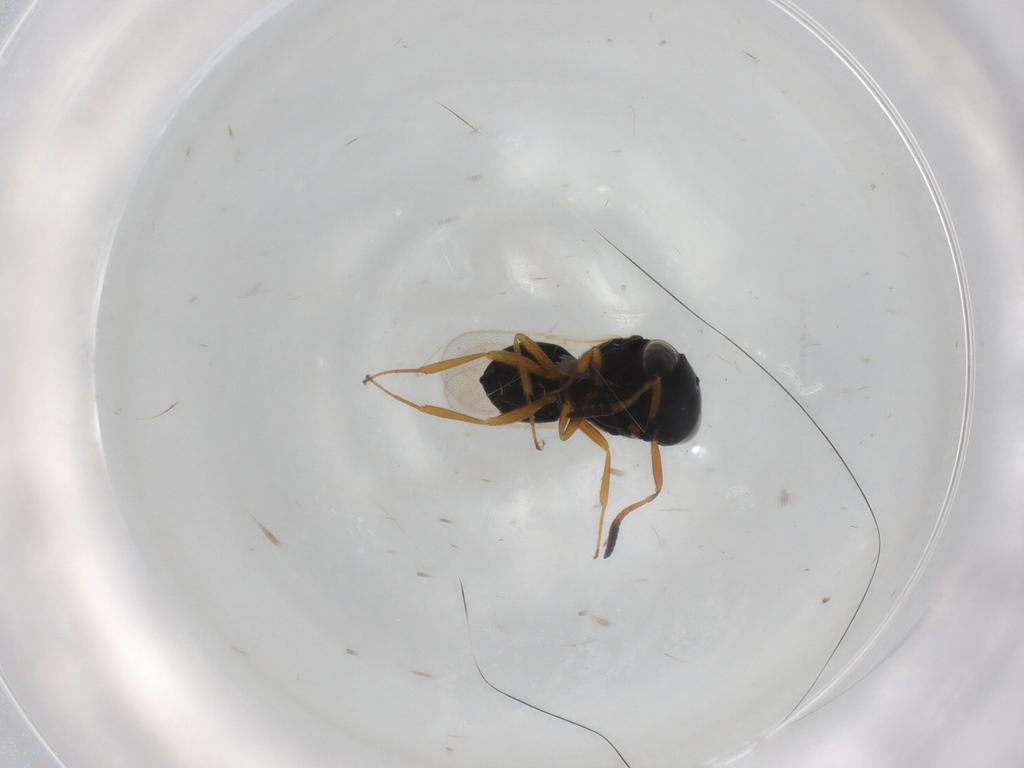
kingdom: Animalia
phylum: Arthropoda
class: Insecta
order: Hymenoptera
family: Scelionidae
